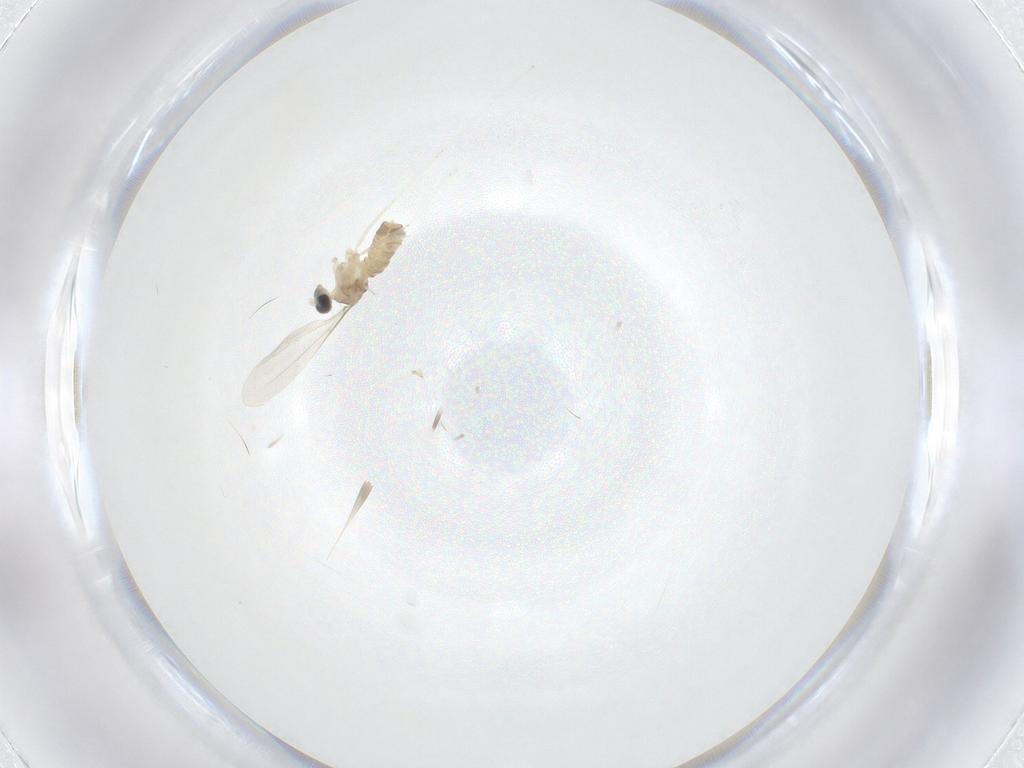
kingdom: Animalia
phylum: Arthropoda
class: Insecta
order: Diptera
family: Cecidomyiidae
